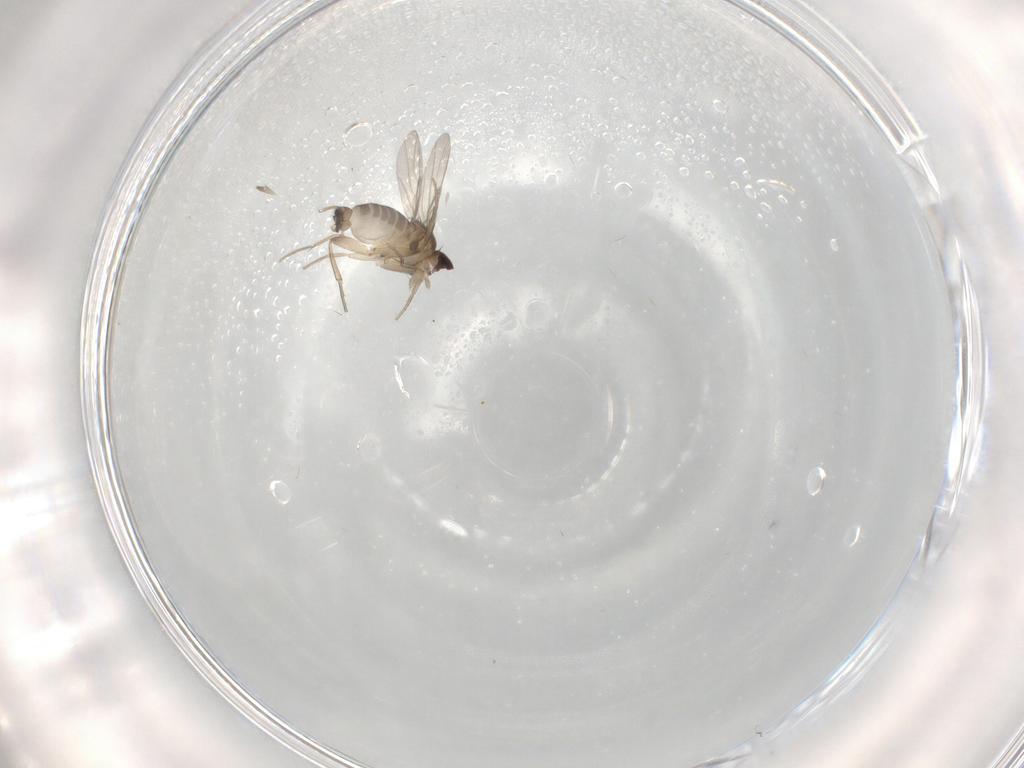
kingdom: Animalia
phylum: Arthropoda
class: Insecta
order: Diptera
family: Phoridae
